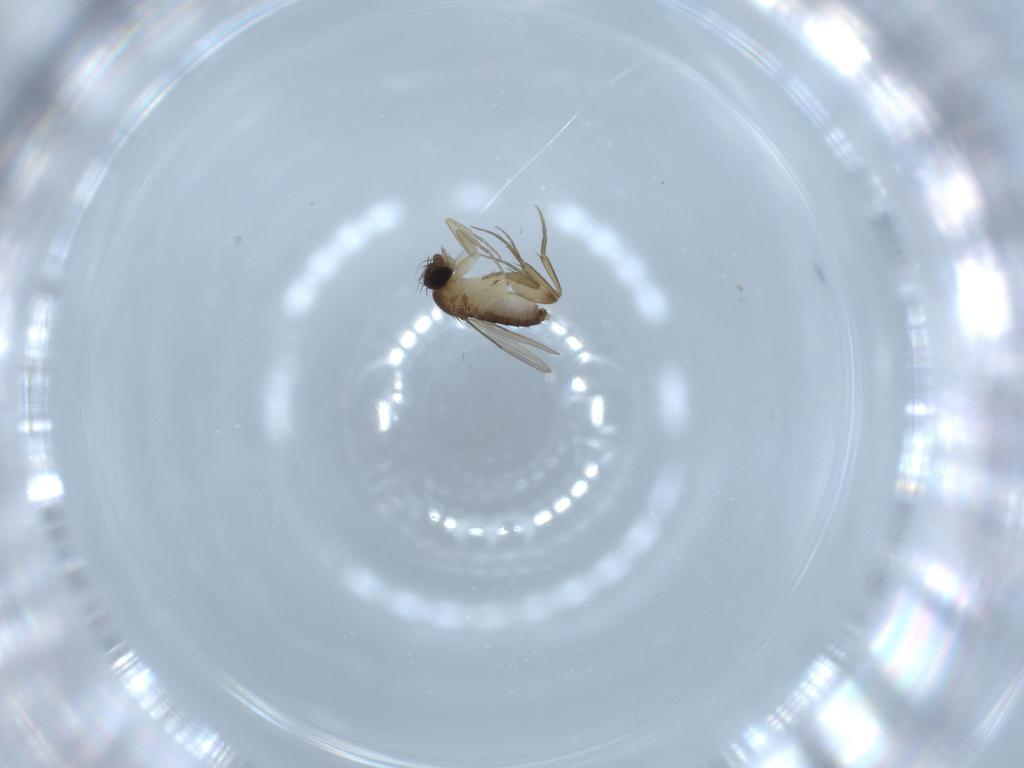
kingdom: Animalia
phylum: Arthropoda
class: Insecta
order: Diptera
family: Phoridae
